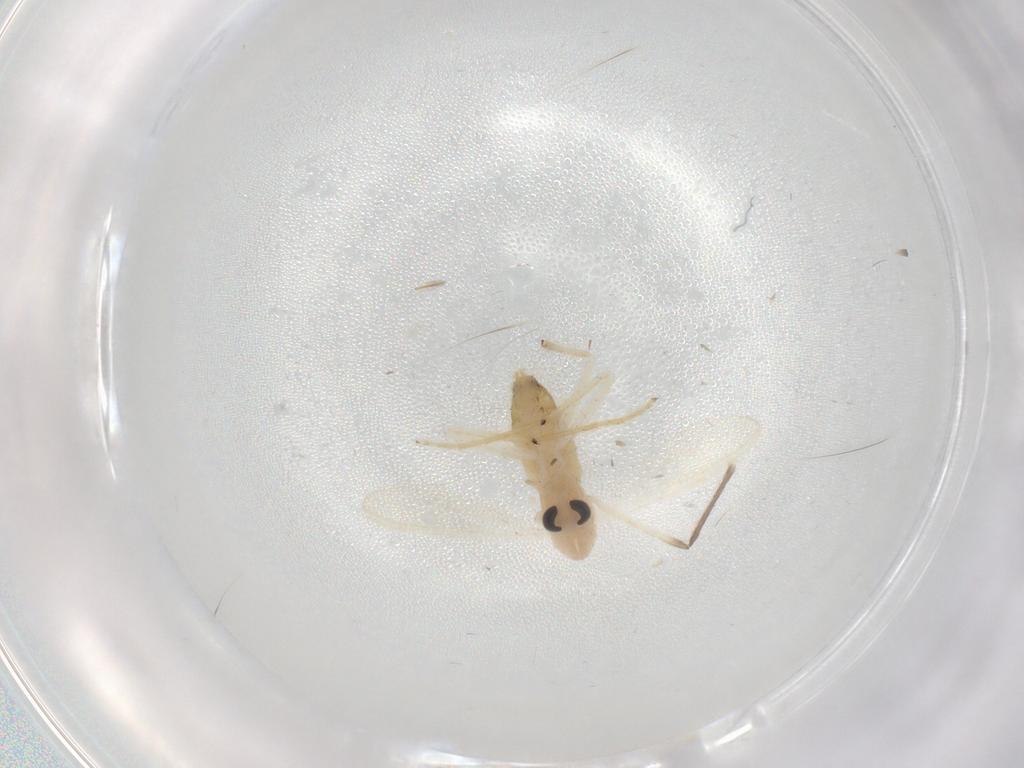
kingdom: Animalia
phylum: Arthropoda
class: Insecta
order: Diptera
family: Chironomidae
